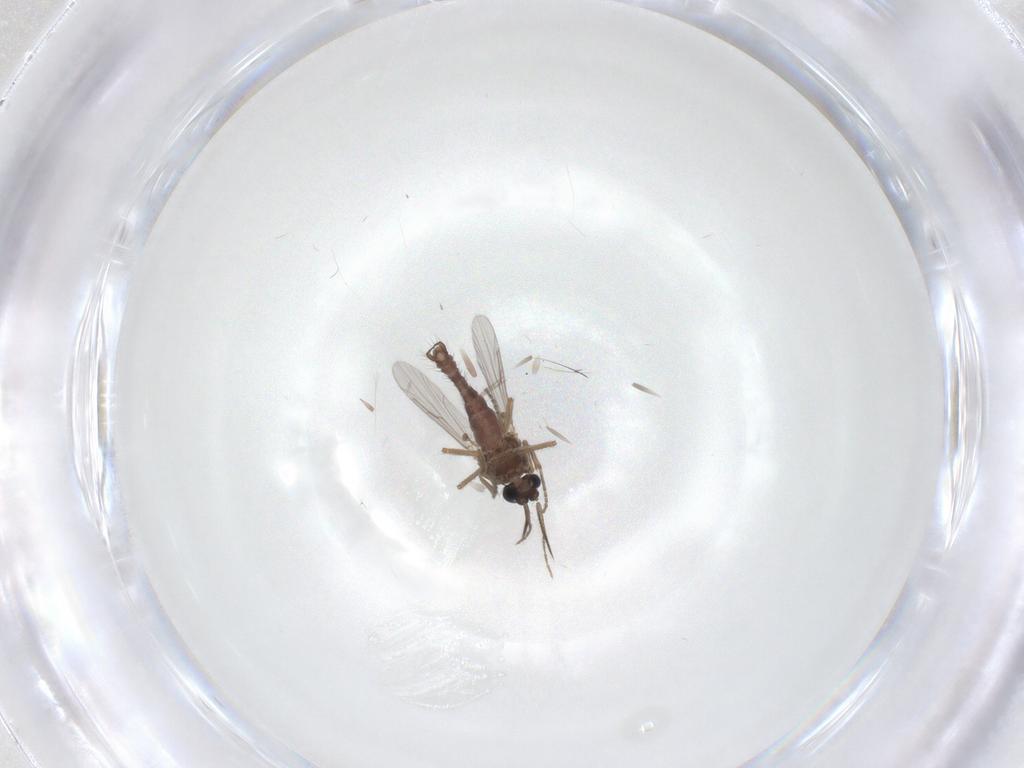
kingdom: Animalia
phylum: Arthropoda
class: Insecta
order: Diptera
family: Ceratopogonidae
